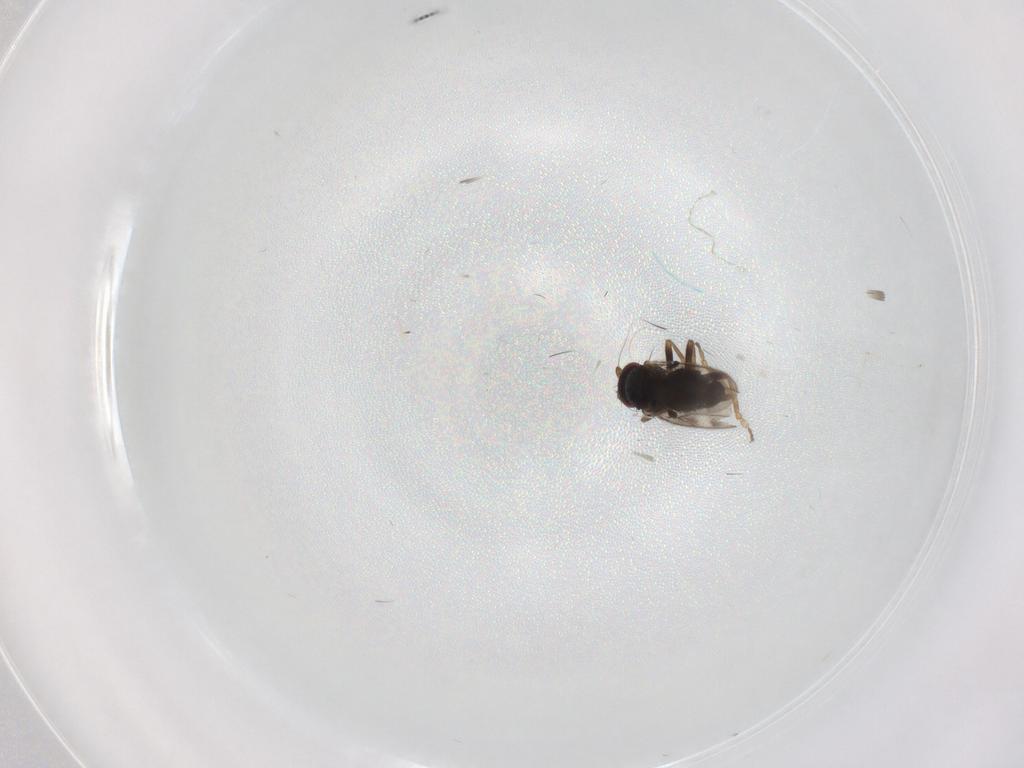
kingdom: Animalia
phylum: Arthropoda
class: Insecta
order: Diptera
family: Sphaeroceridae
